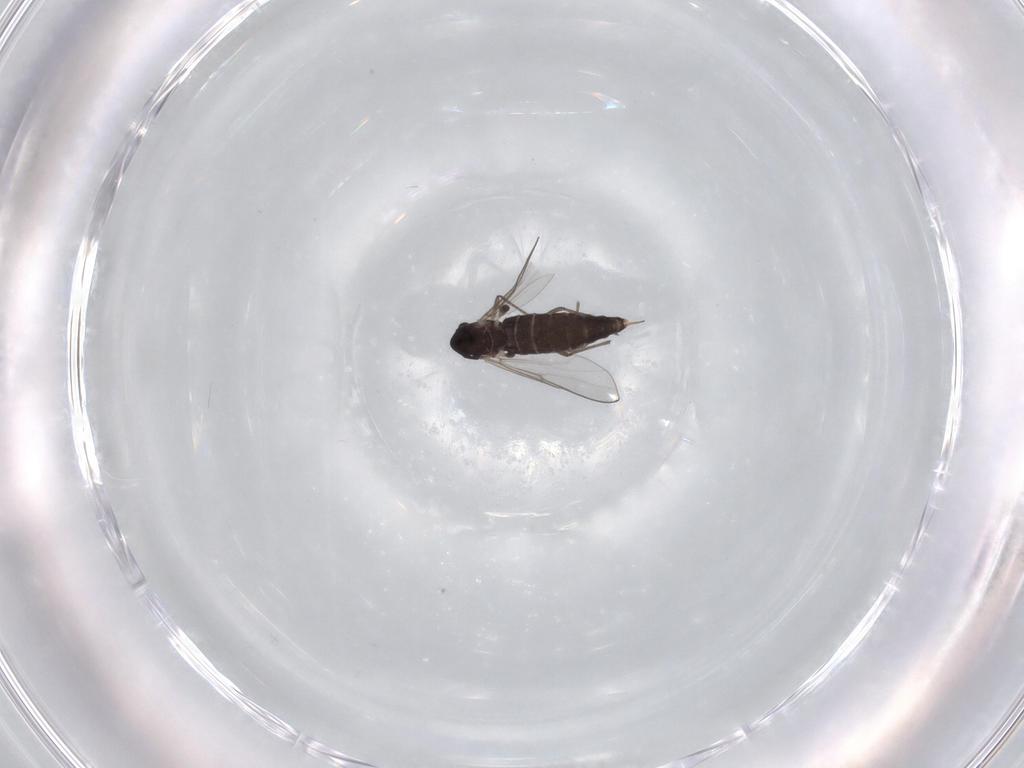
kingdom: Animalia
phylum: Arthropoda
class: Insecta
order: Diptera
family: Chironomidae
